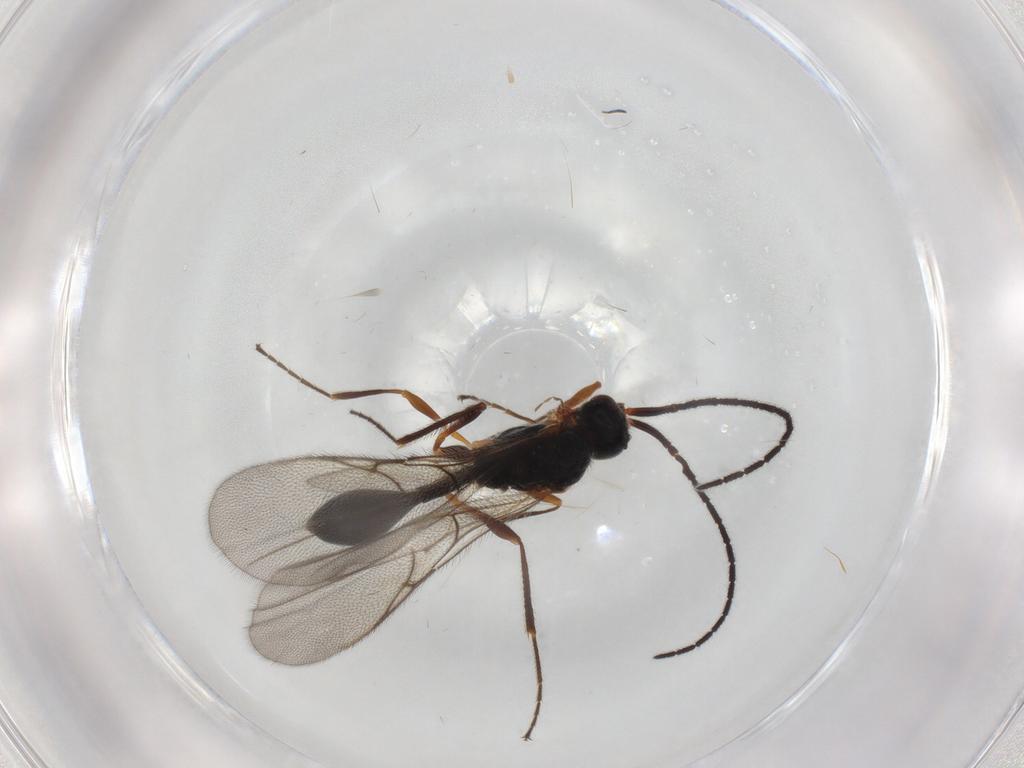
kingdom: Animalia
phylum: Arthropoda
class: Insecta
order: Hymenoptera
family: Diapriidae
